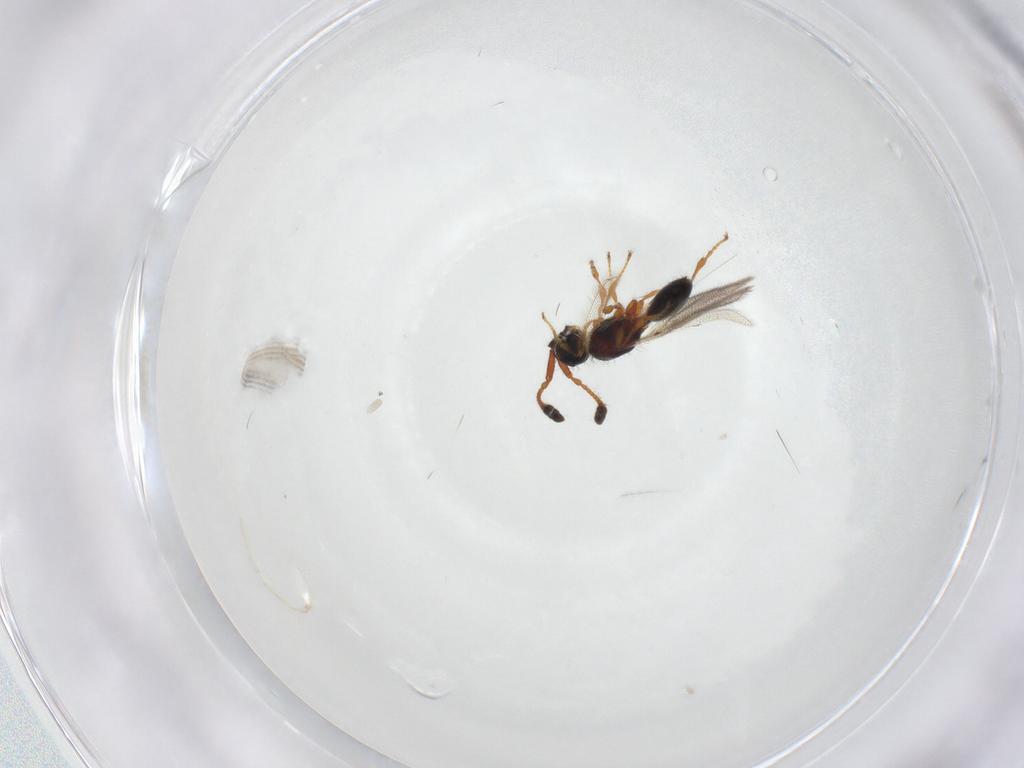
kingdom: Animalia
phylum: Arthropoda
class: Insecta
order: Hymenoptera
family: Diapriidae
